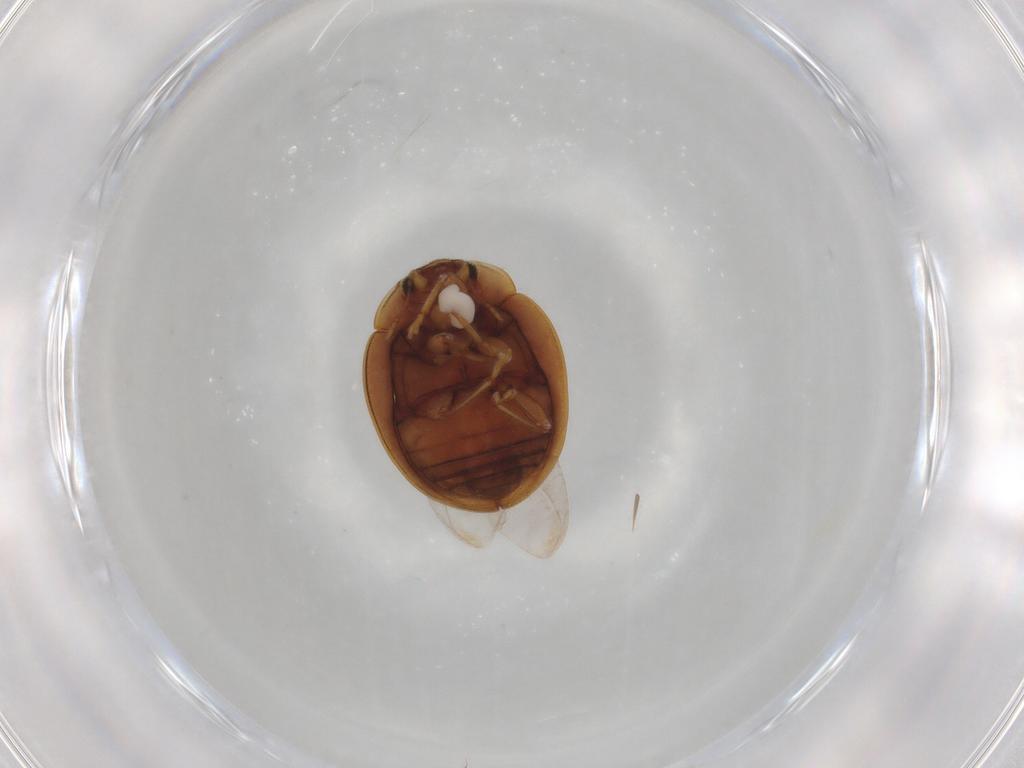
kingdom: Animalia
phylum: Arthropoda
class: Insecta
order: Coleoptera
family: Coccinellidae
